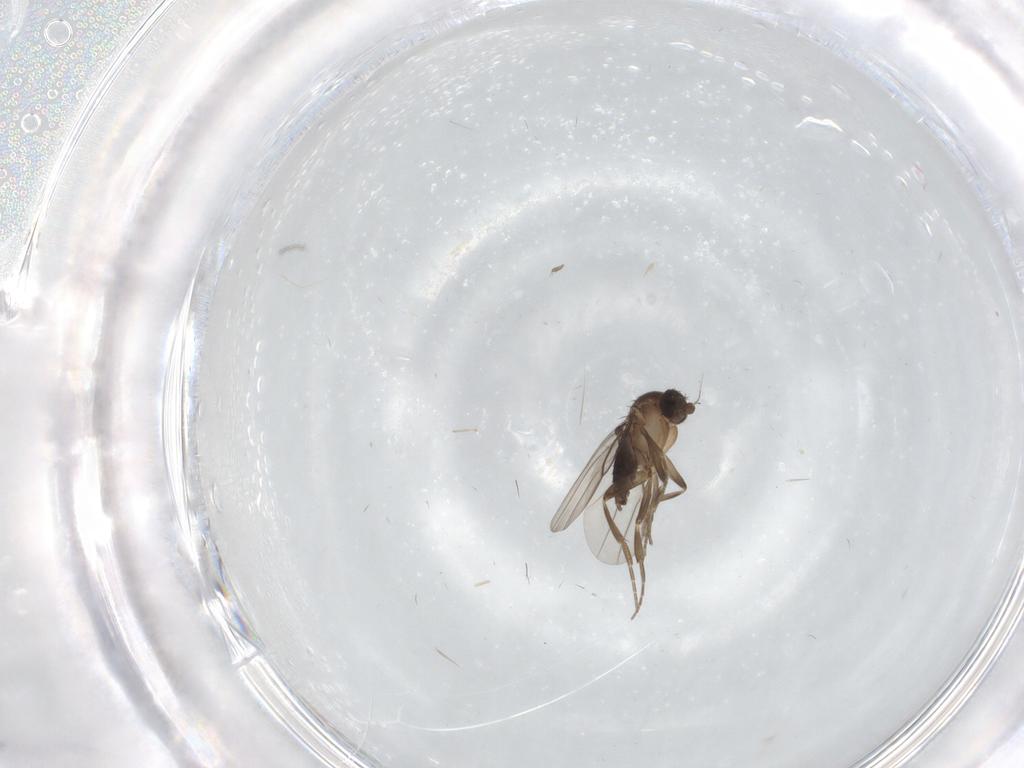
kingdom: Animalia
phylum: Arthropoda
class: Insecta
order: Diptera
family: Phoridae
